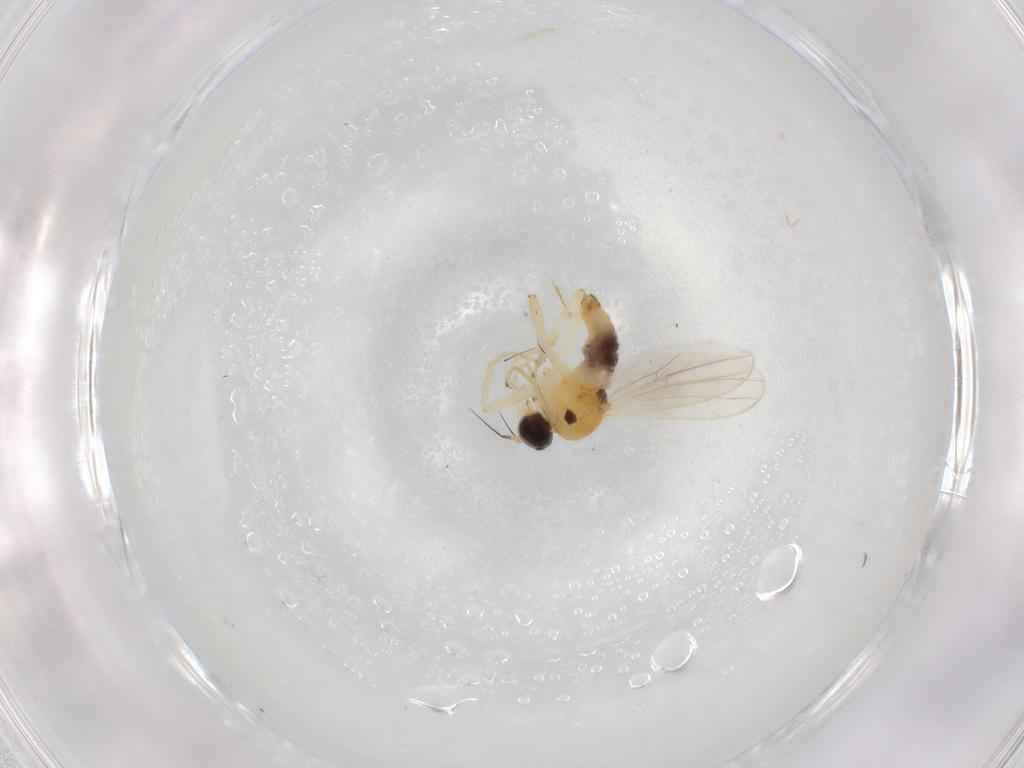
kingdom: Animalia
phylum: Arthropoda
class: Insecta
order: Diptera
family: Hybotidae
